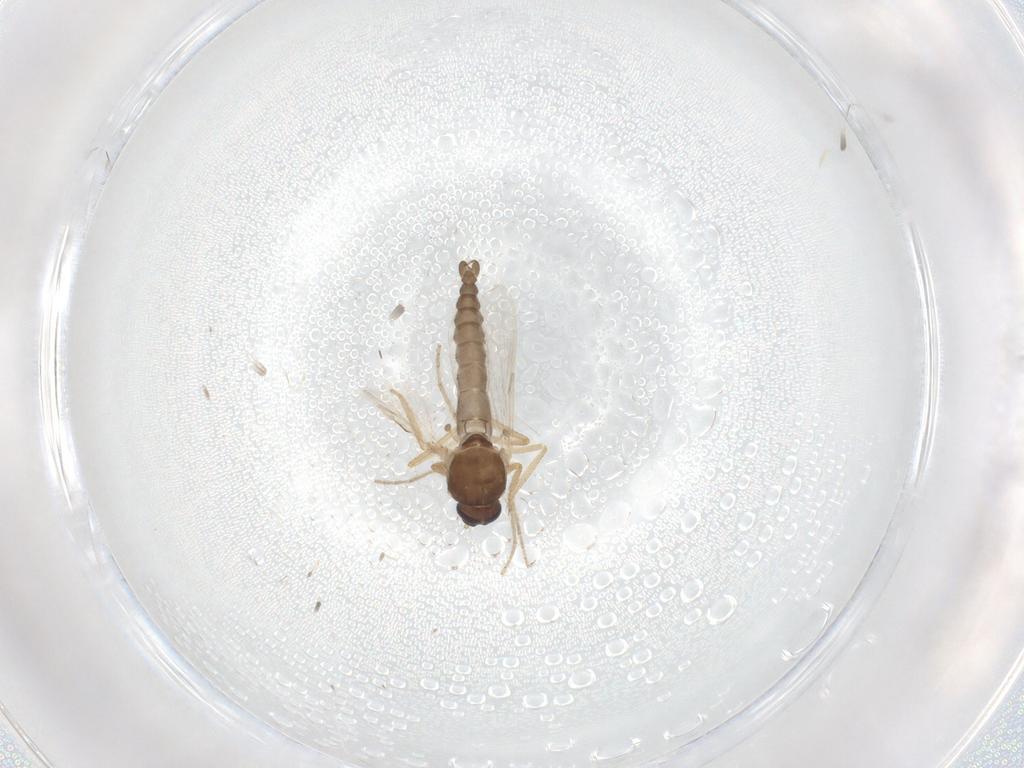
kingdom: Animalia
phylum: Arthropoda
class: Insecta
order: Diptera
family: Ceratopogonidae
